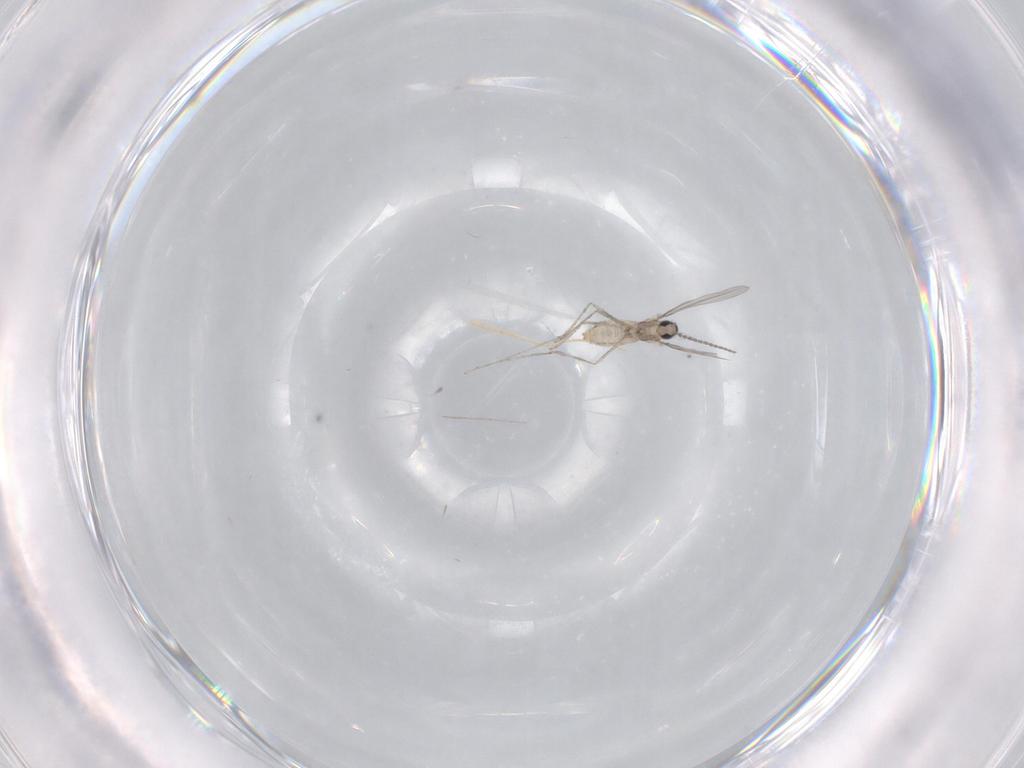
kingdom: Animalia
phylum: Arthropoda
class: Insecta
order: Diptera
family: Cecidomyiidae
